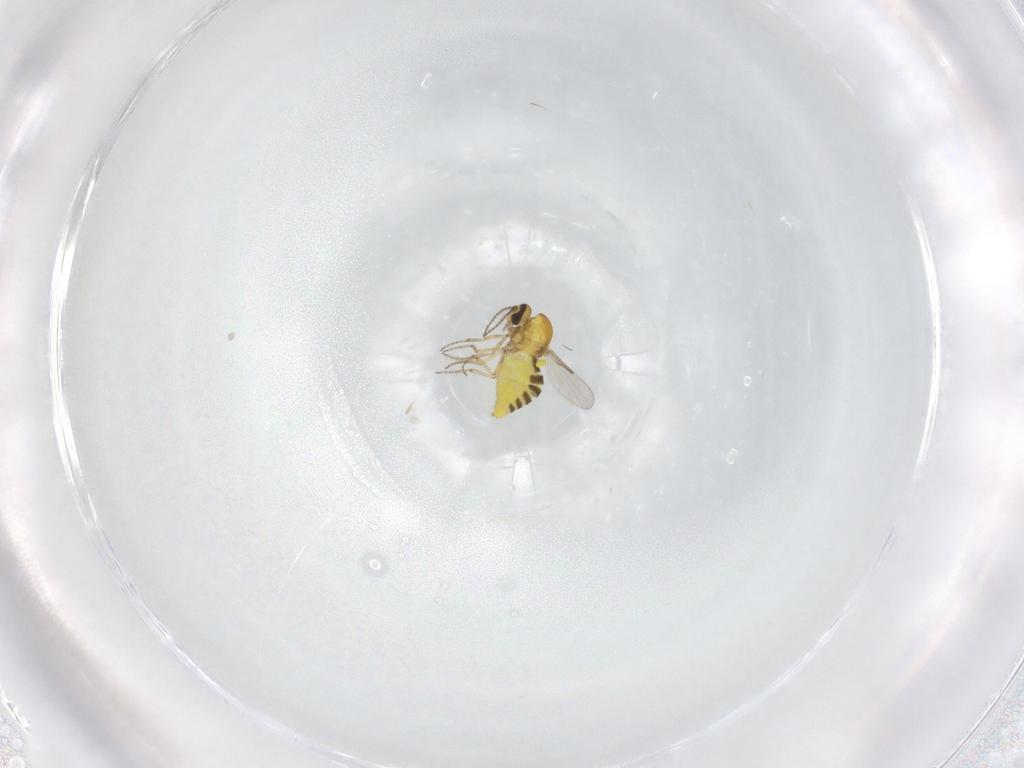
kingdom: Animalia
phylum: Arthropoda
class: Insecta
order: Diptera
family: Ceratopogonidae
